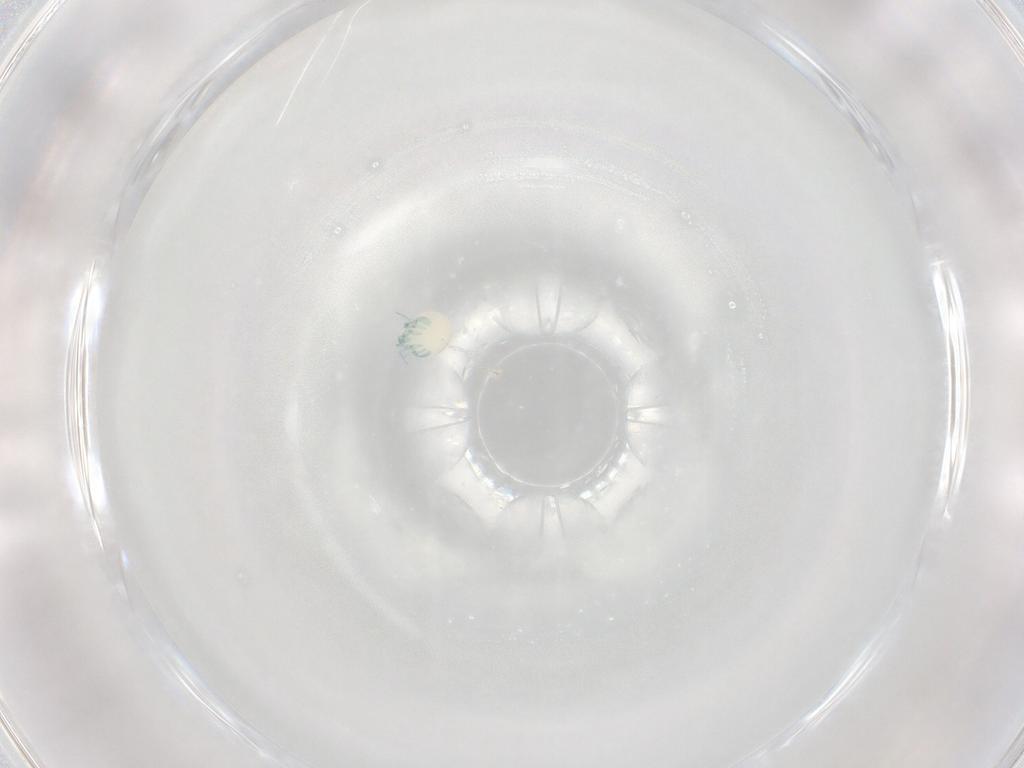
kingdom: Animalia
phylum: Arthropoda
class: Arachnida
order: Trombidiformes
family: Arrenuridae
